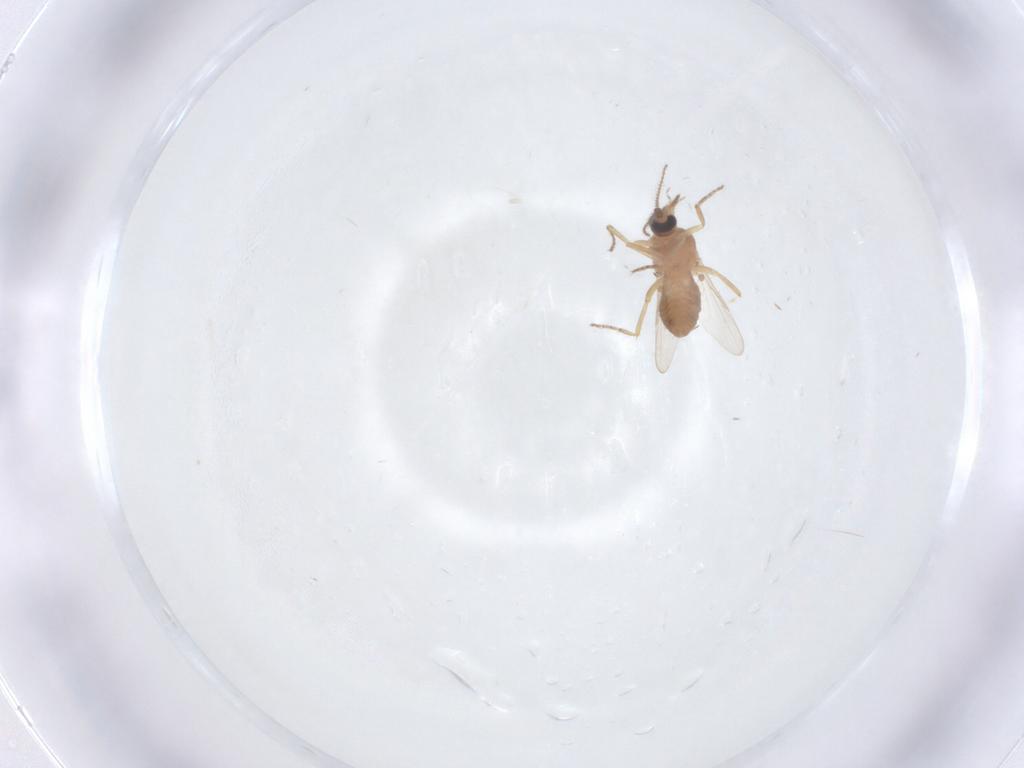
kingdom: Animalia
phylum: Arthropoda
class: Insecta
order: Diptera
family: Ceratopogonidae
